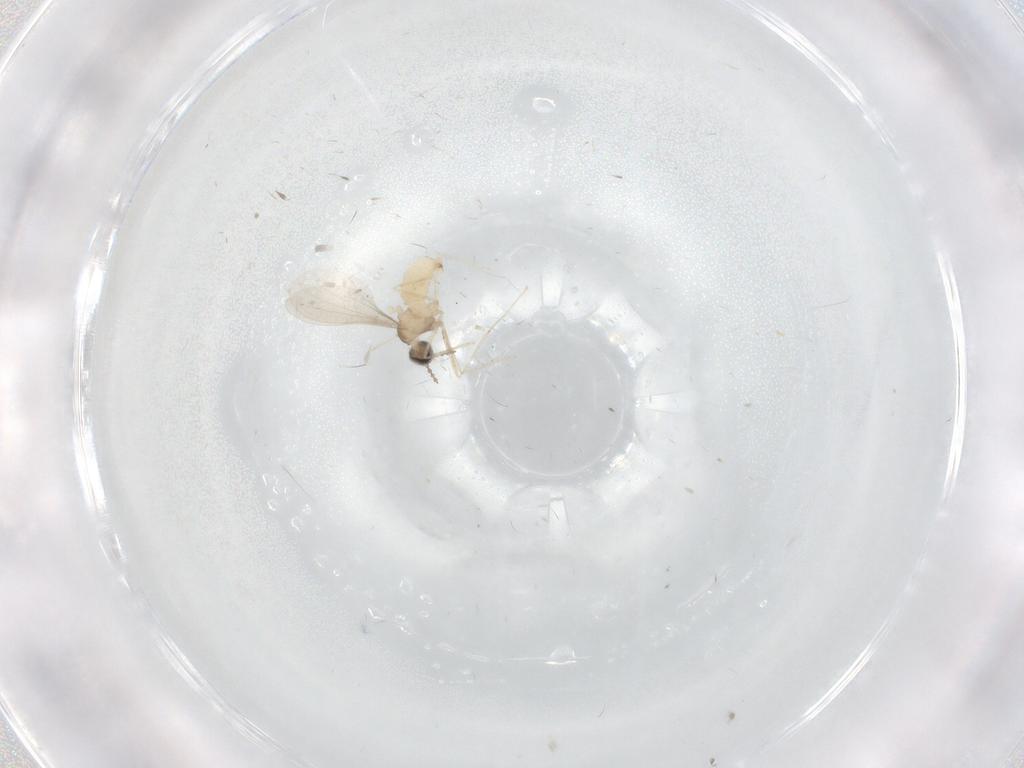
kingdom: Animalia
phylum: Arthropoda
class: Insecta
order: Diptera
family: Cecidomyiidae
